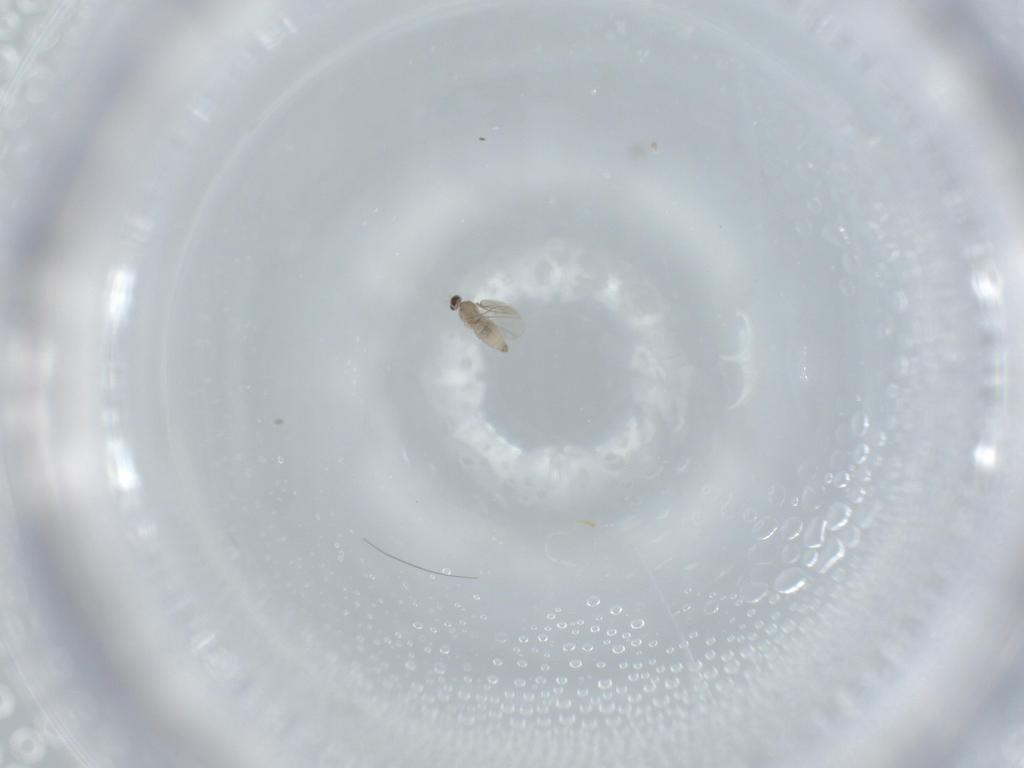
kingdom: Animalia
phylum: Arthropoda
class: Insecta
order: Diptera
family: Cecidomyiidae
